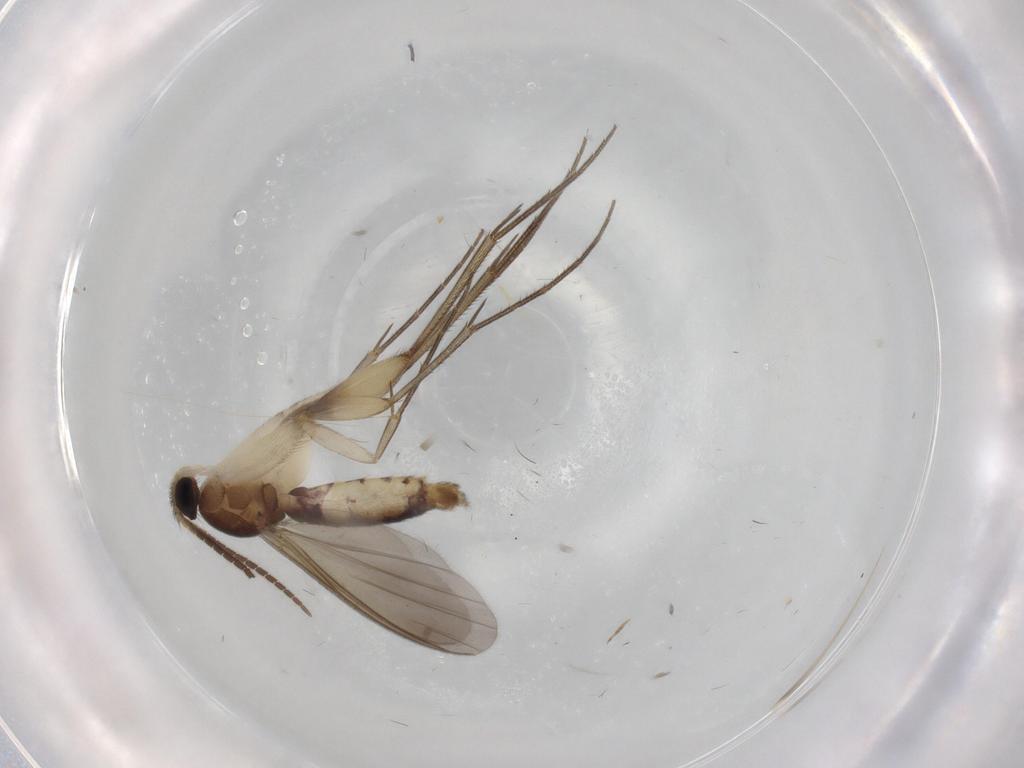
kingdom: Animalia
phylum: Arthropoda
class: Insecta
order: Diptera
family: Mycetophilidae
